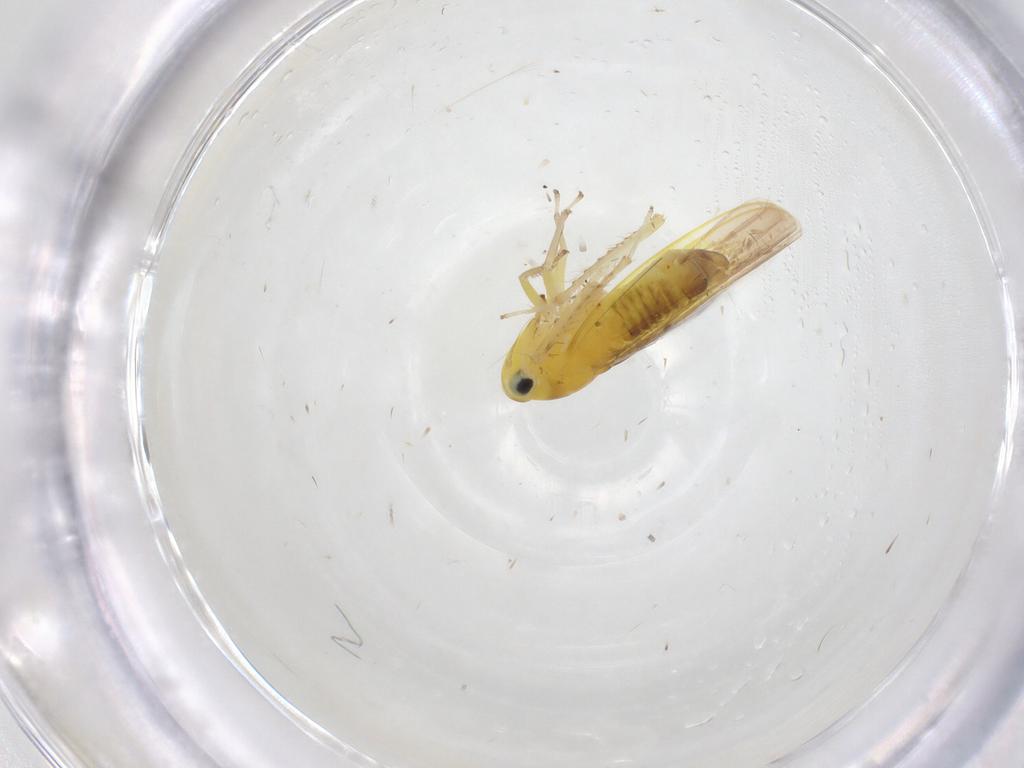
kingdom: Animalia
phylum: Arthropoda
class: Insecta
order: Hemiptera
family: Cicadellidae
